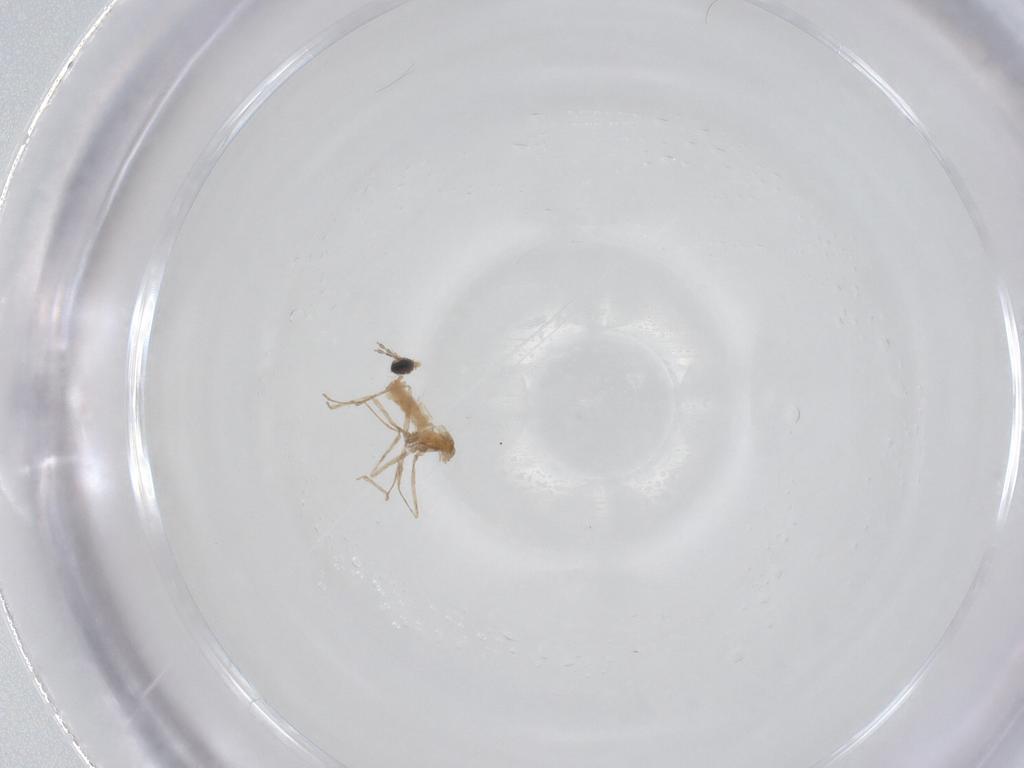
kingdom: Animalia
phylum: Arthropoda
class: Insecta
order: Diptera
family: Cecidomyiidae
